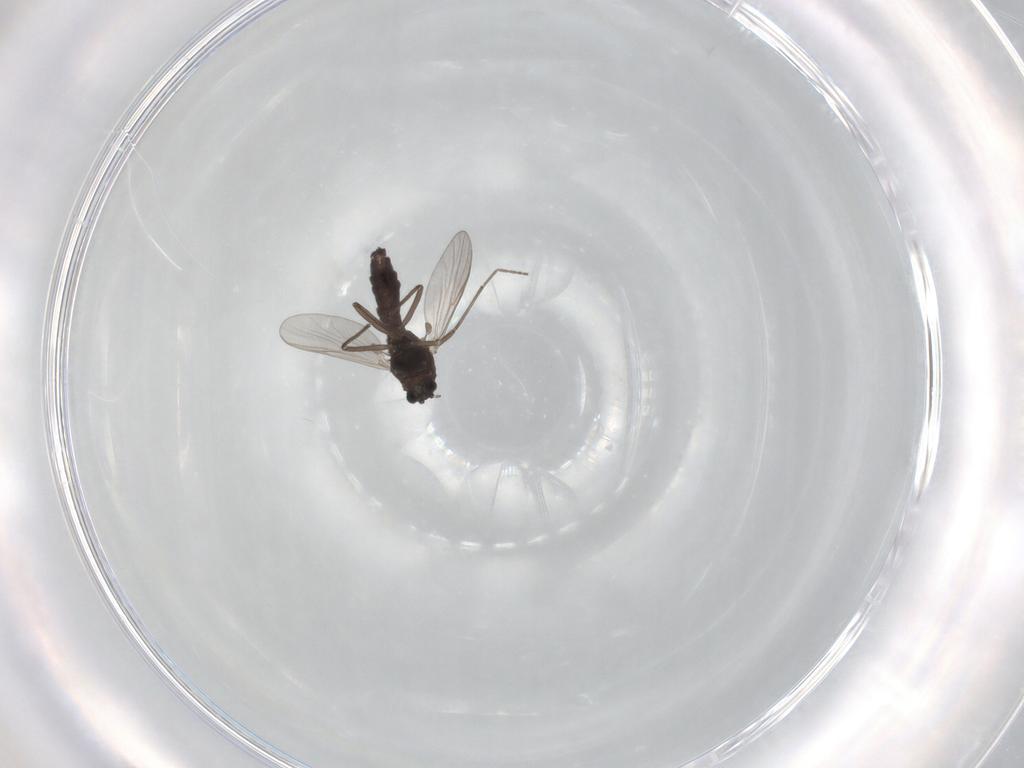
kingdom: Animalia
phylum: Arthropoda
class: Insecta
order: Diptera
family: Chironomidae
